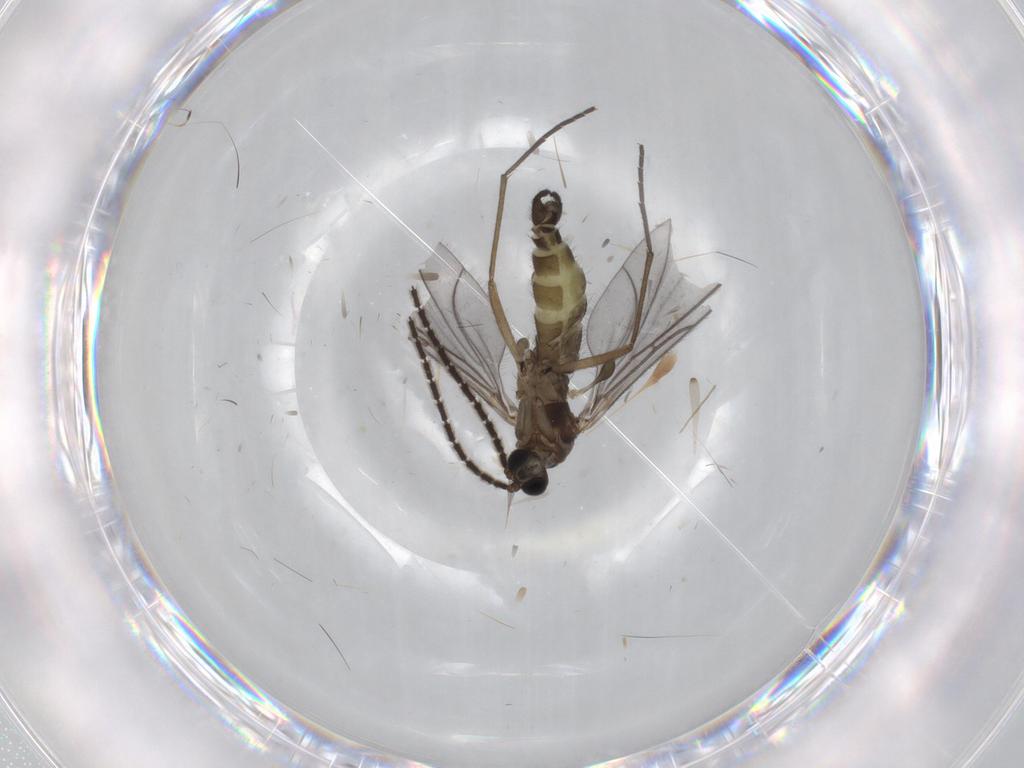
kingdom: Animalia
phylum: Arthropoda
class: Insecta
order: Diptera
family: Cecidomyiidae
